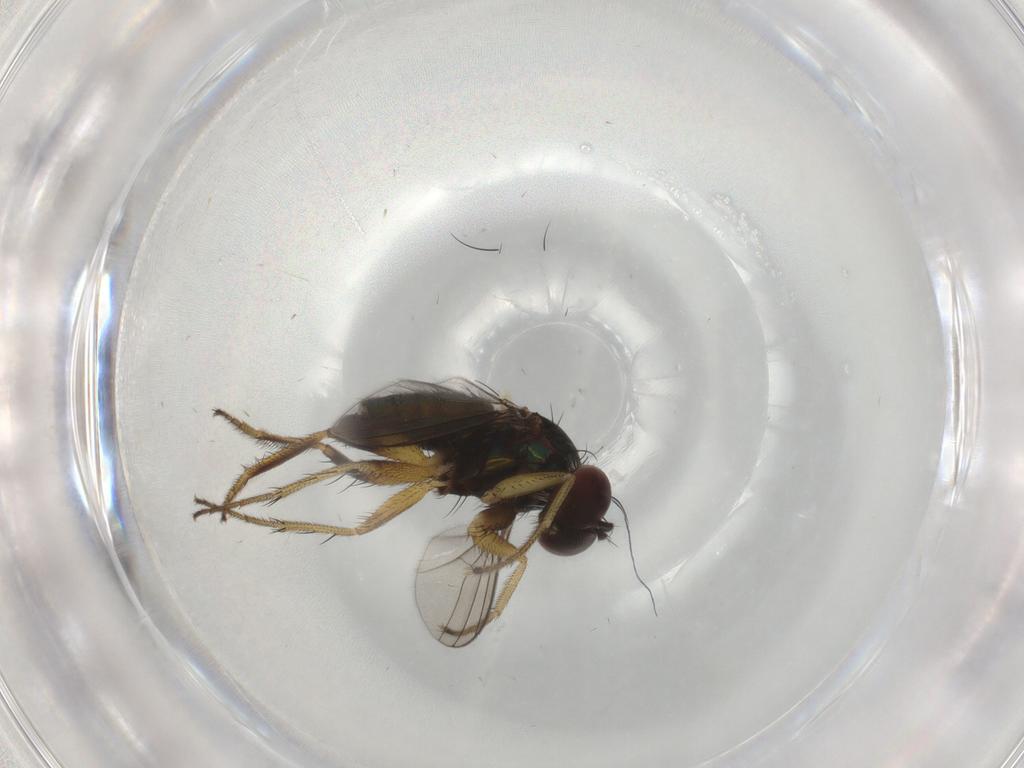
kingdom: Animalia
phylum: Arthropoda
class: Insecta
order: Diptera
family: Dolichopodidae
